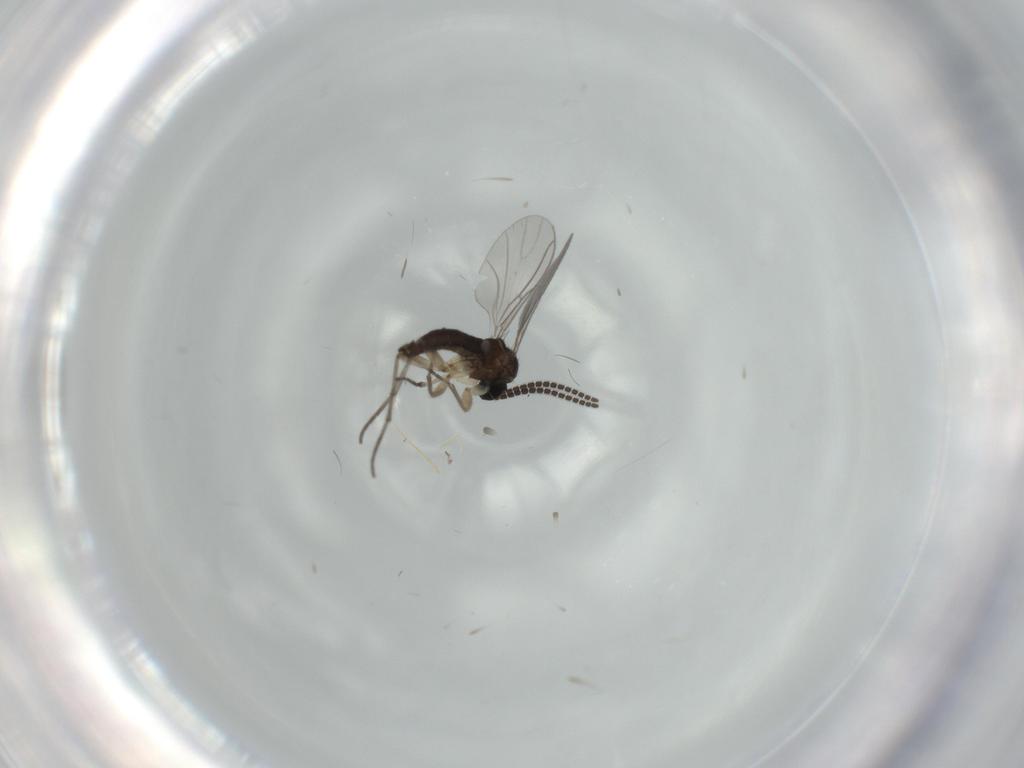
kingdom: Animalia
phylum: Arthropoda
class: Insecta
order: Diptera
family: Sciaridae
